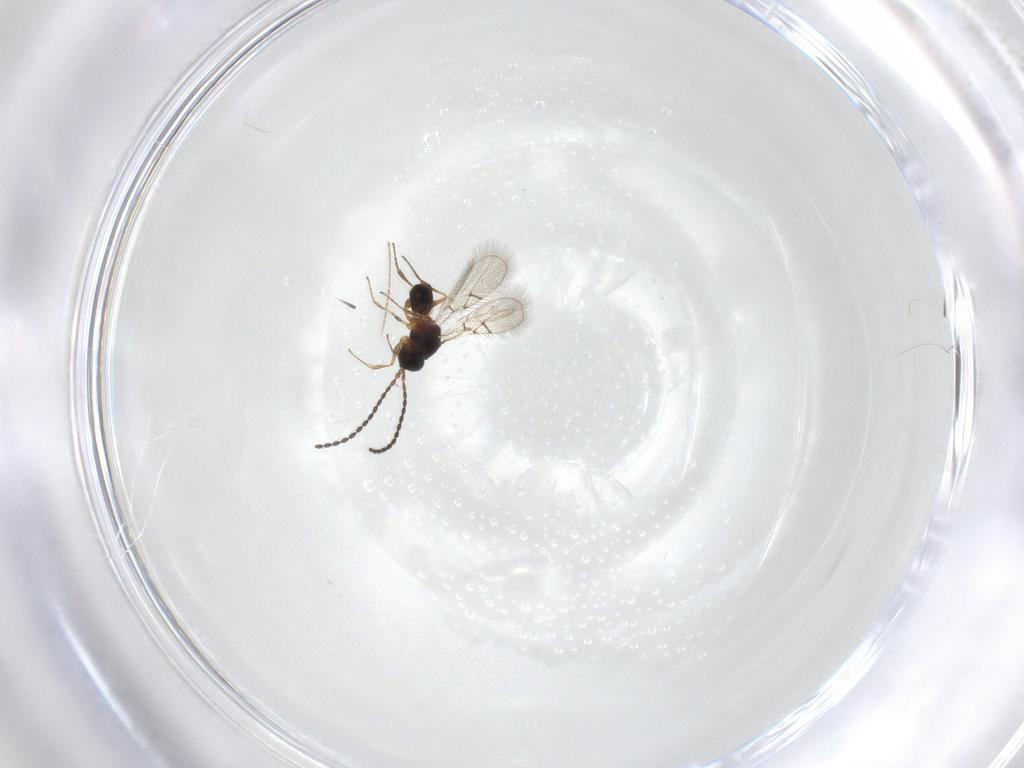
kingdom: Animalia
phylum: Arthropoda
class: Insecta
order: Hymenoptera
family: Figitidae
